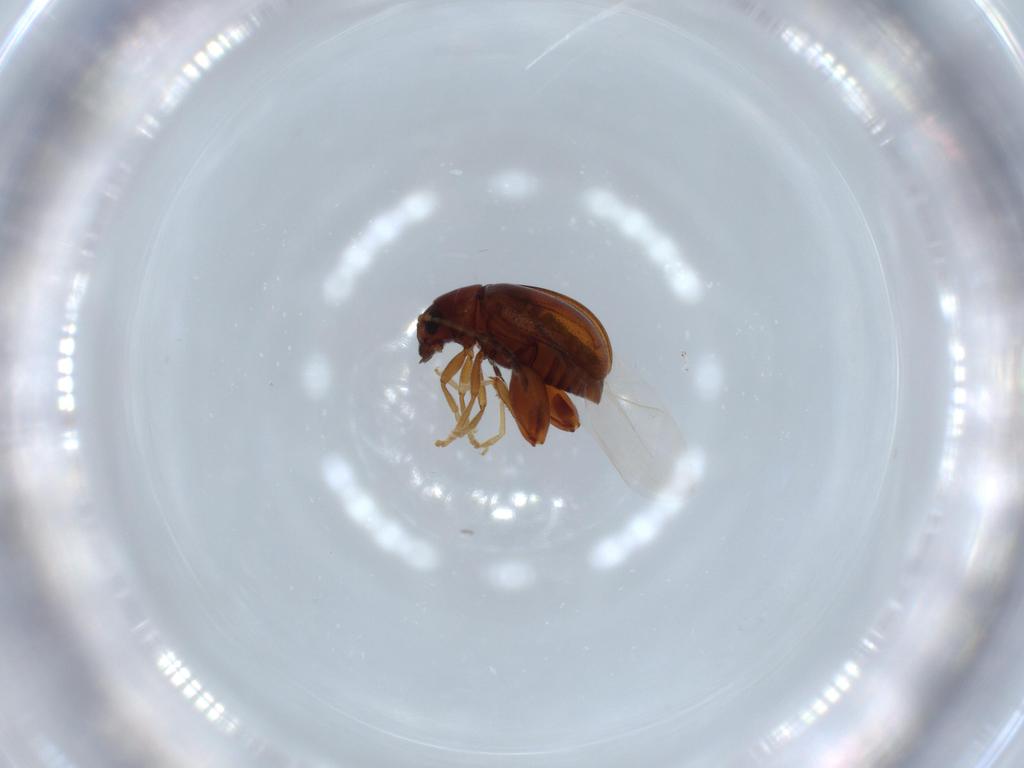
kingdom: Animalia
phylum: Arthropoda
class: Insecta
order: Coleoptera
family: Chrysomelidae
